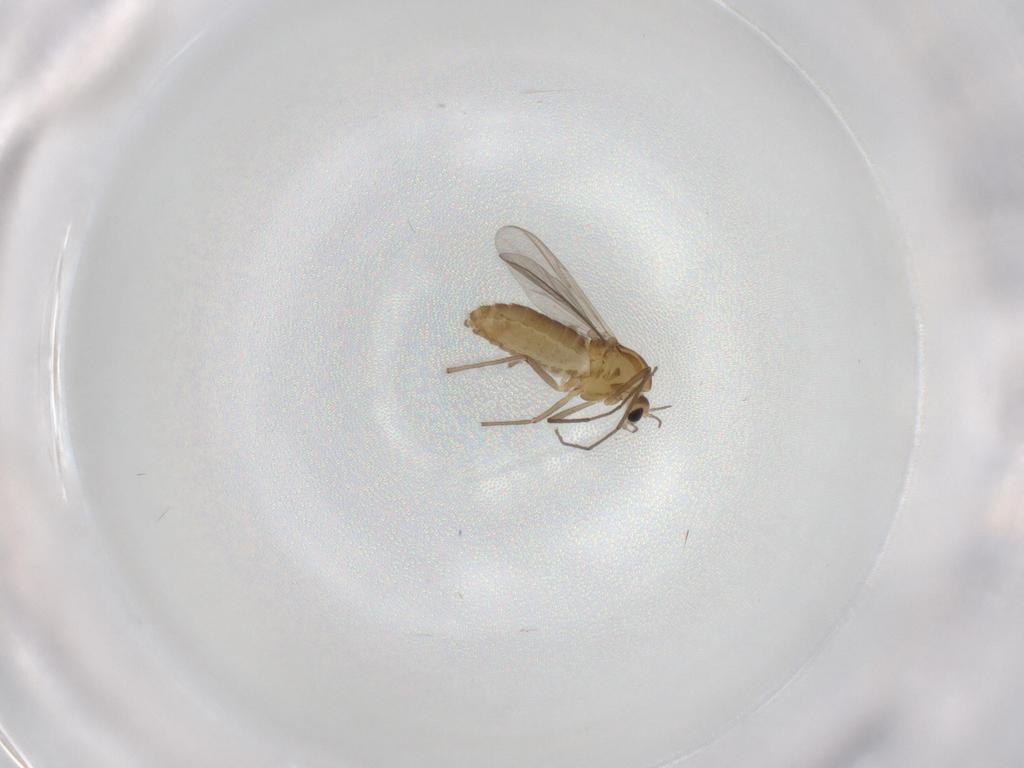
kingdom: Animalia
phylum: Arthropoda
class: Insecta
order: Diptera
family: Chironomidae
